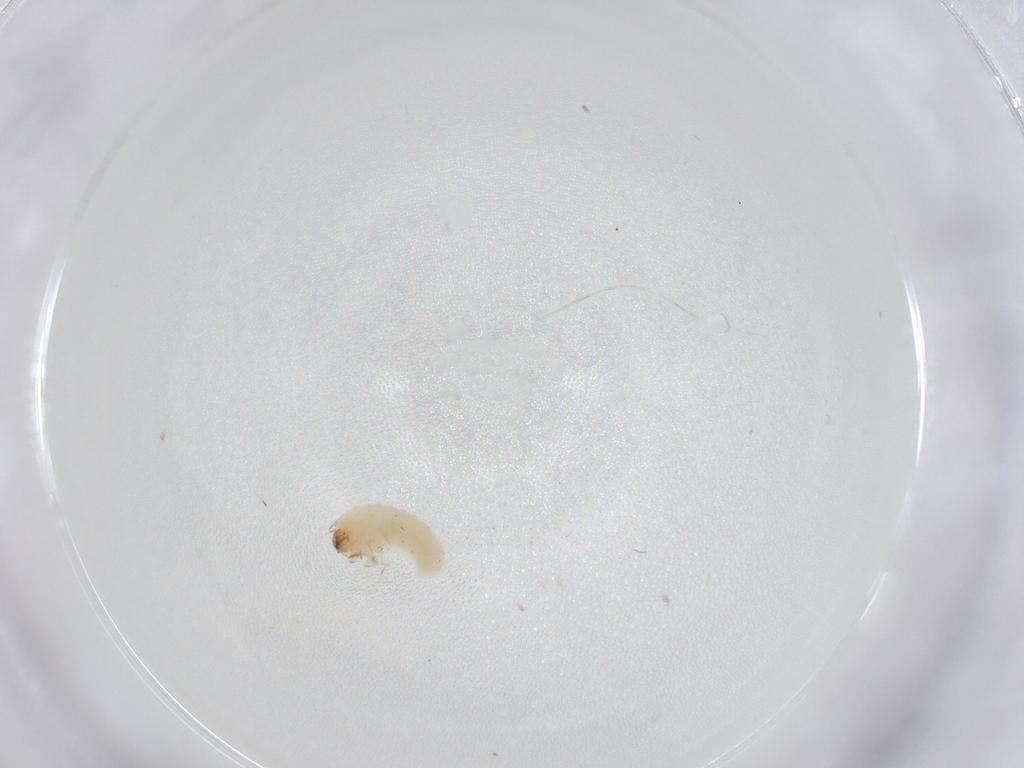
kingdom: Animalia
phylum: Arthropoda
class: Insecta
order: Coleoptera
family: Bostrichidae
